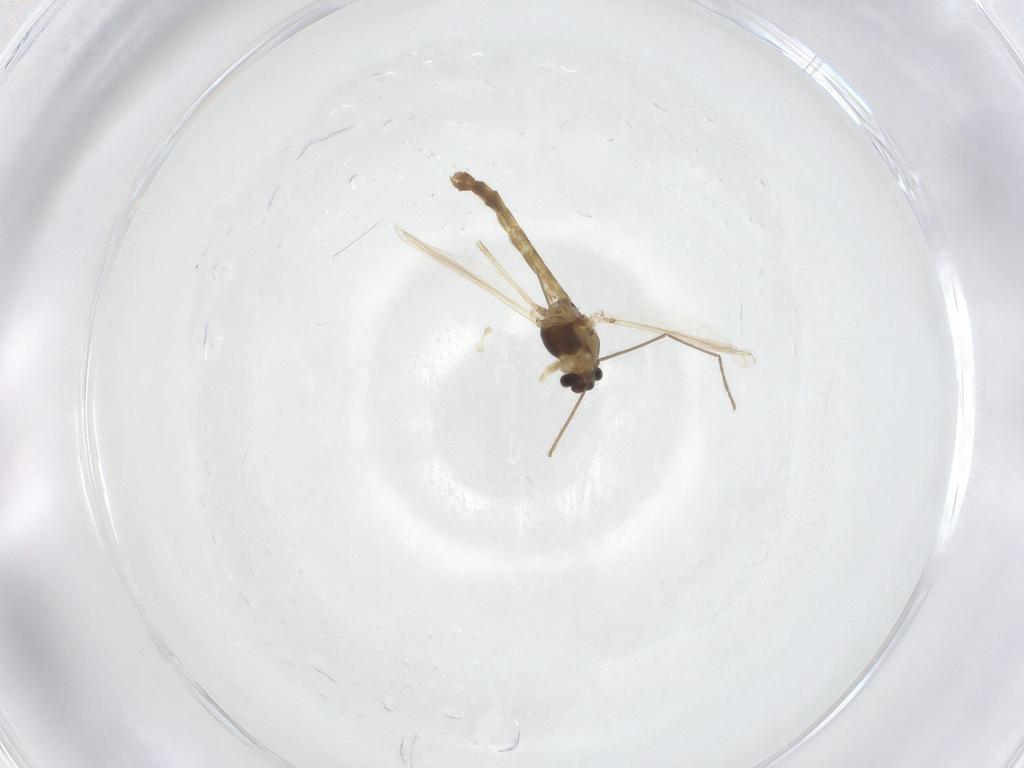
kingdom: Animalia
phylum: Arthropoda
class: Insecta
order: Diptera
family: Chironomidae
